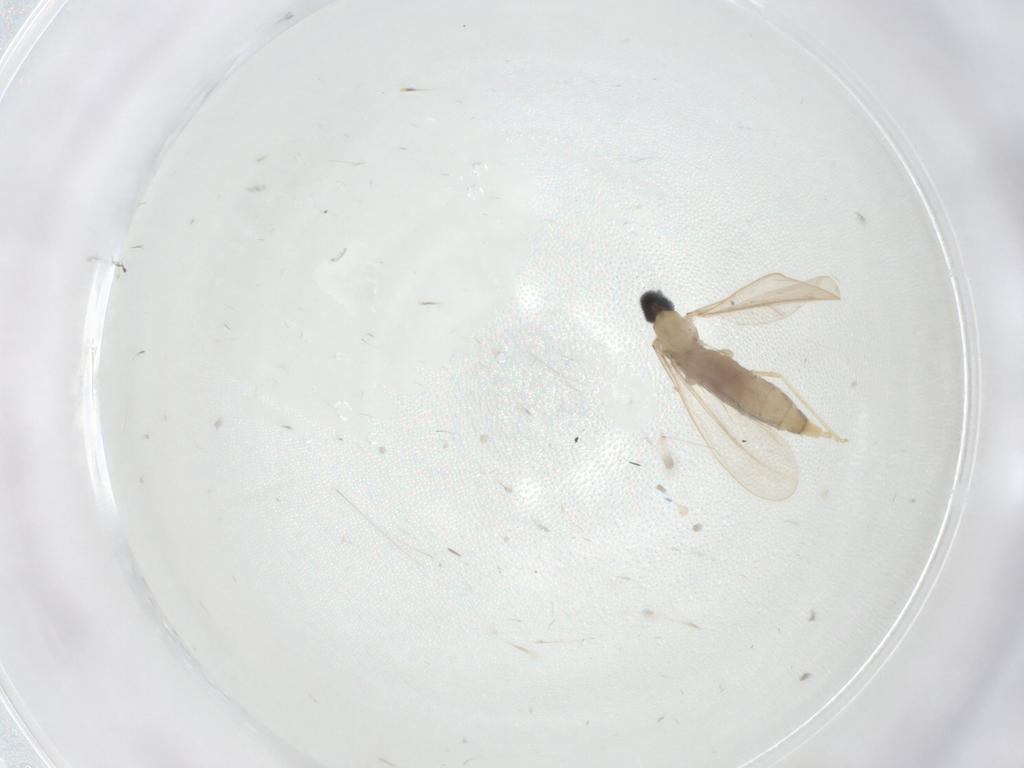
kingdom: Animalia
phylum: Arthropoda
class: Insecta
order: Diptera
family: Cecidomyiidae
